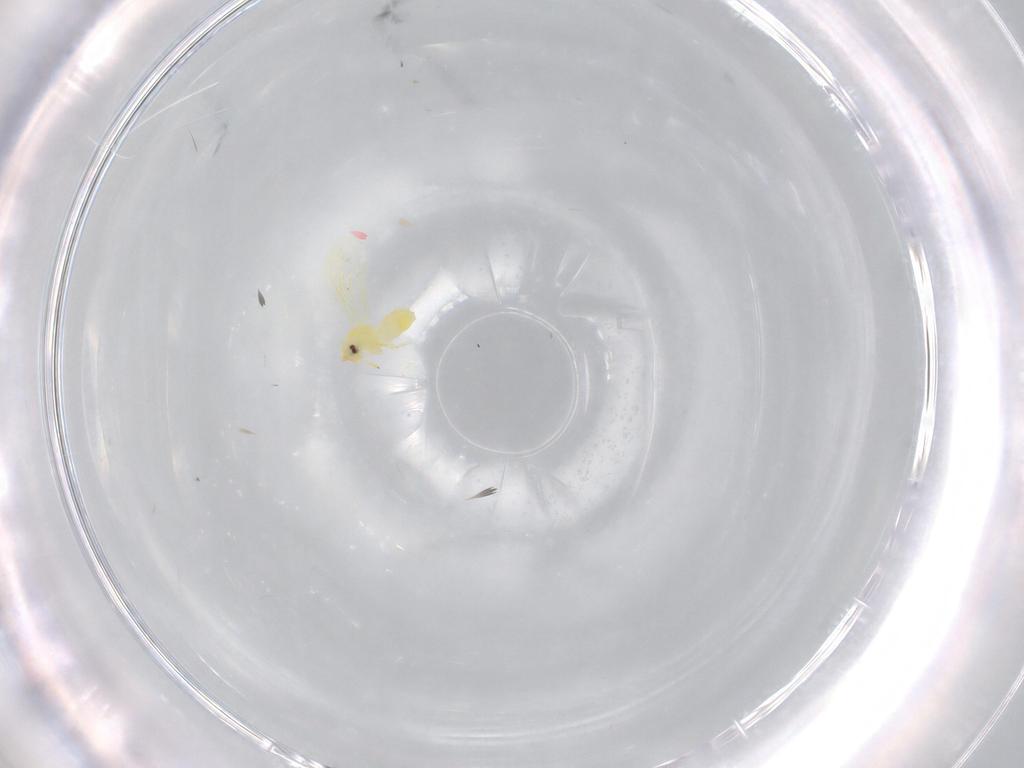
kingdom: Animalia
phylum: Arthropoda
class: Insecta
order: Hemiptera
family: Aleyrodidae
